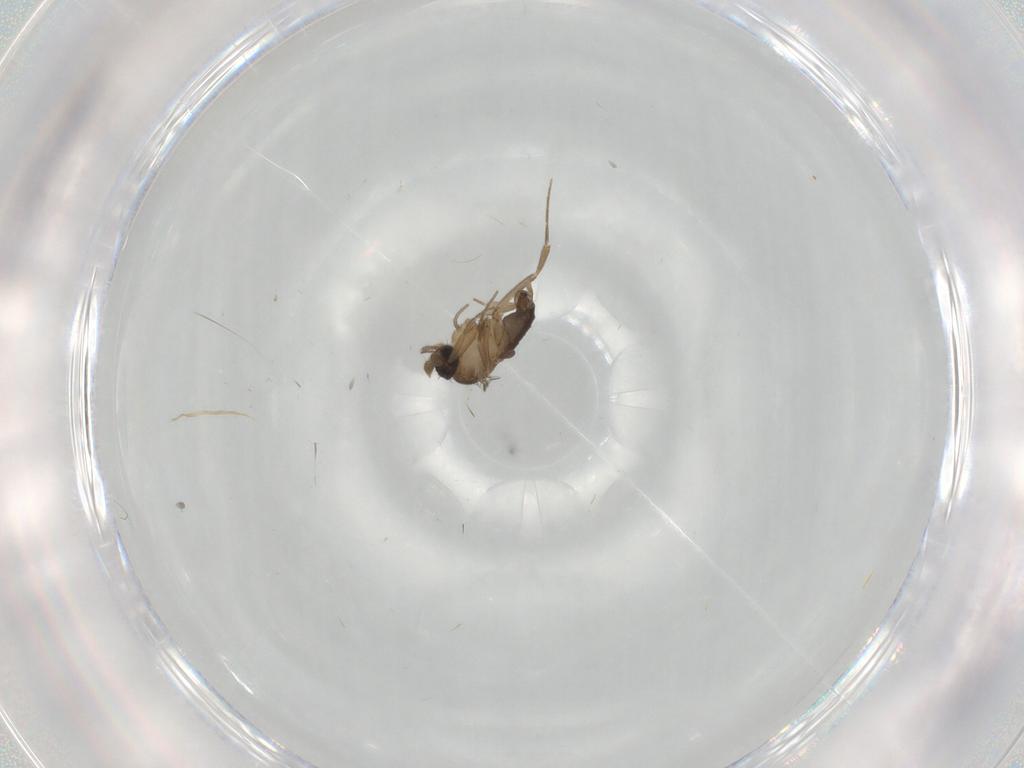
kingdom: Animalia
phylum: Arthropoda
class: Insecta
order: Diptera
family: Phoridae
